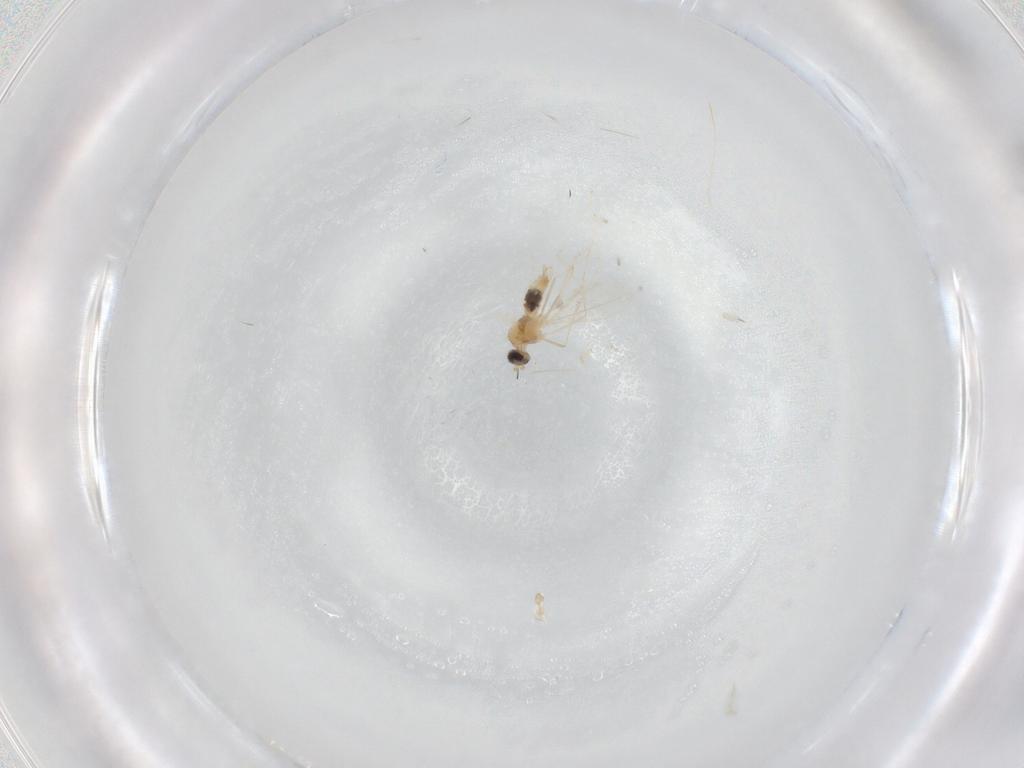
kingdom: Animalia
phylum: Arthropoda
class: Insecta
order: Diptera
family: Cecidomyiidae
